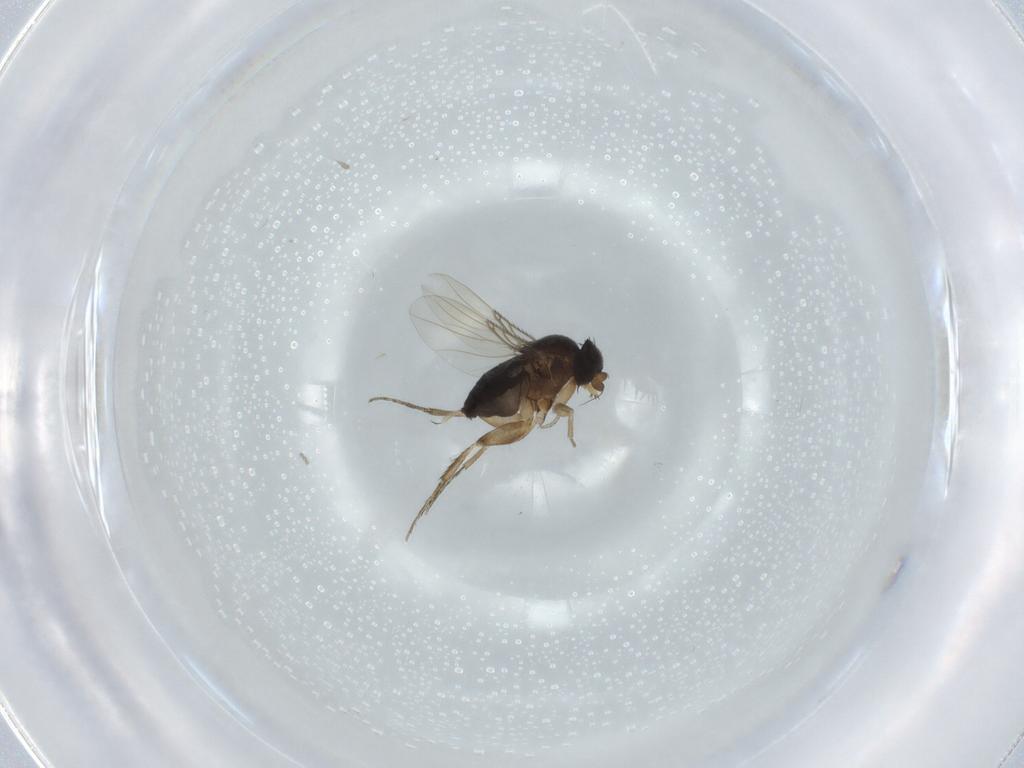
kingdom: Animalia
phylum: Arthropoda
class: Insecta
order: Diptera
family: Phoridae
